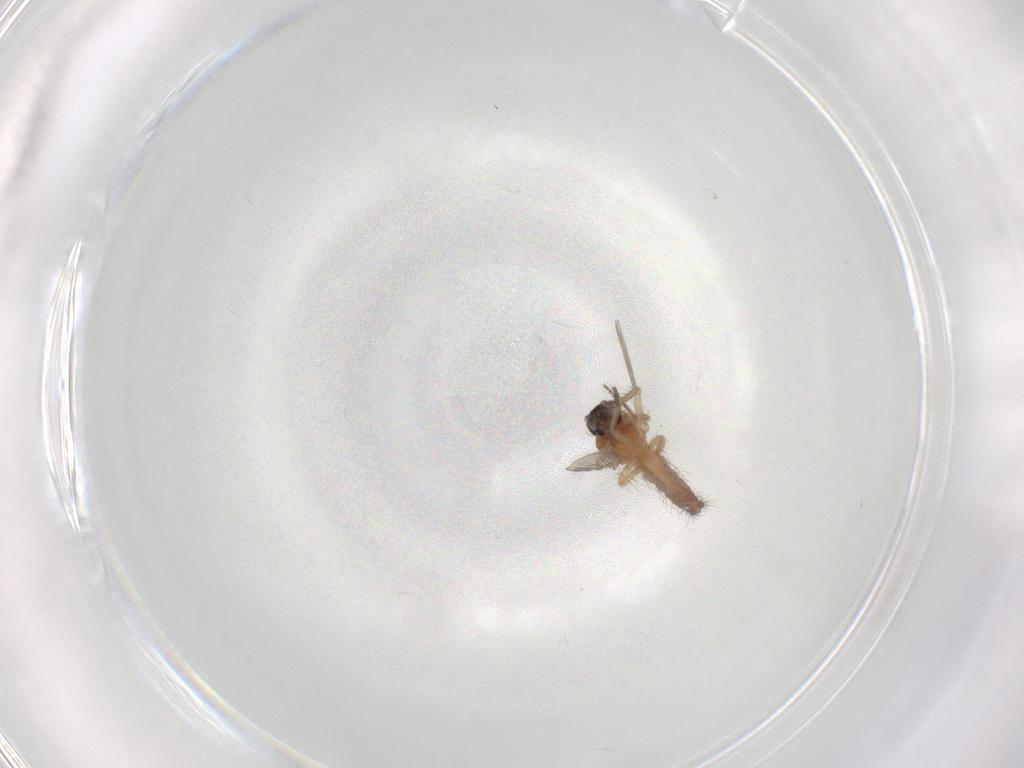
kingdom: Animalia
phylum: Arthropoda
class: Insecta
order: Diptera
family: Ceratopogonidae
